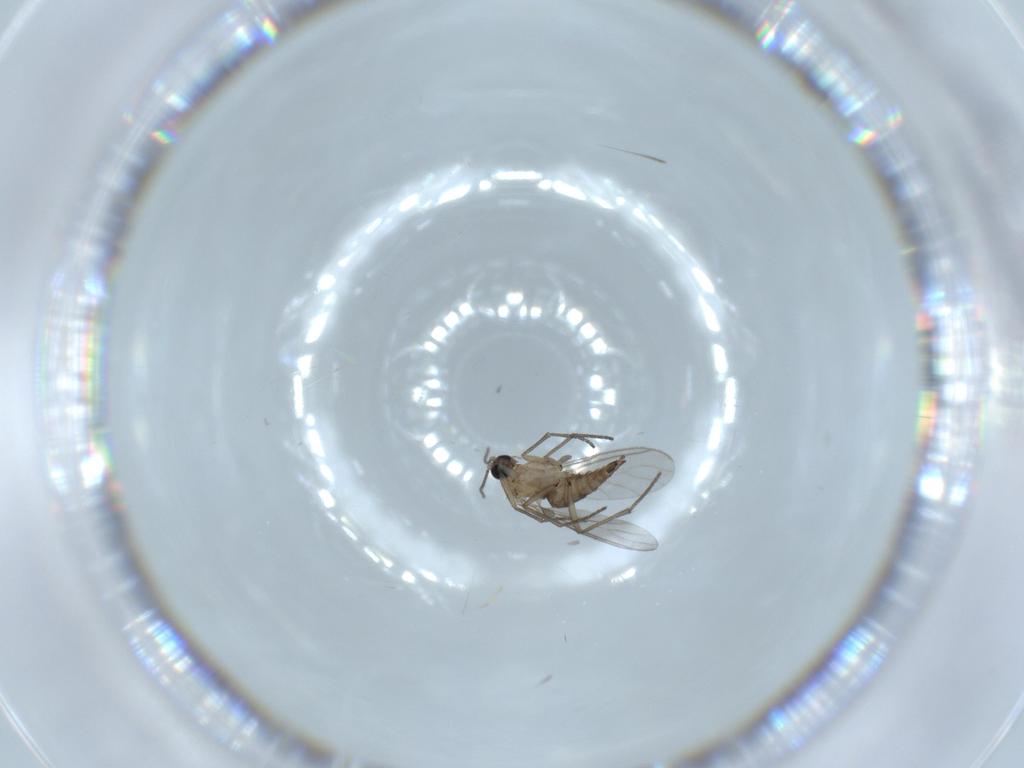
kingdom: Animalia
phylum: Arthropoda
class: Insecta
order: Diptera
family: Sciaridae
